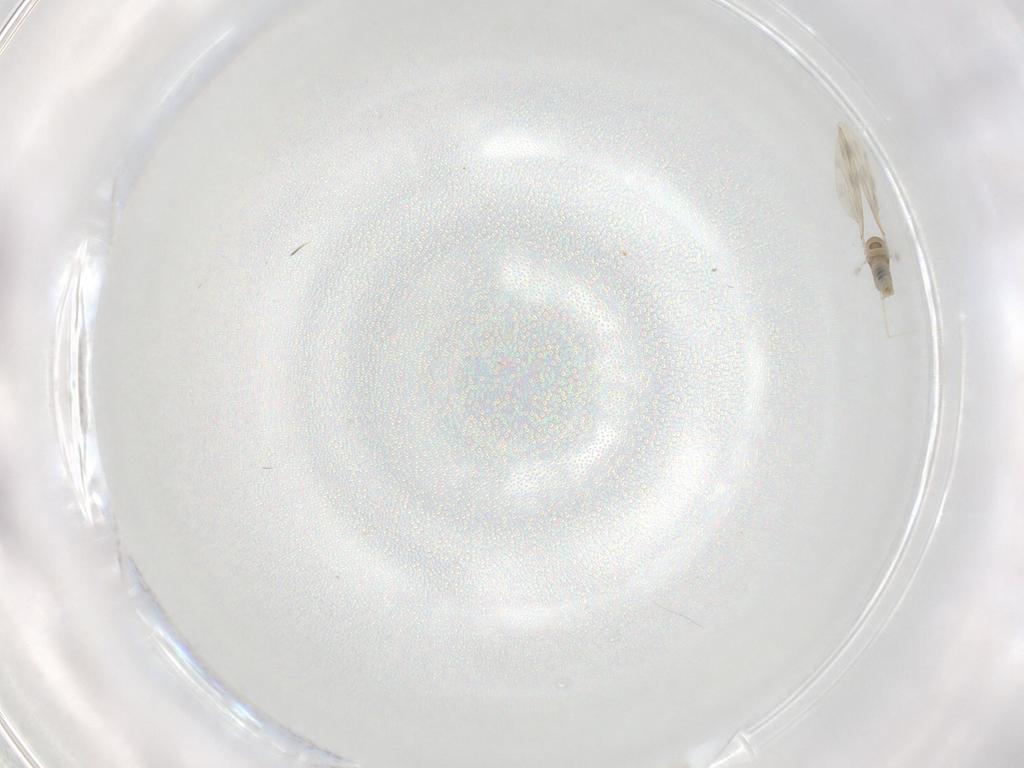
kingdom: Animalia
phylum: Arthropoda
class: Insecta
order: Diptera
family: Cecidomyiidae
